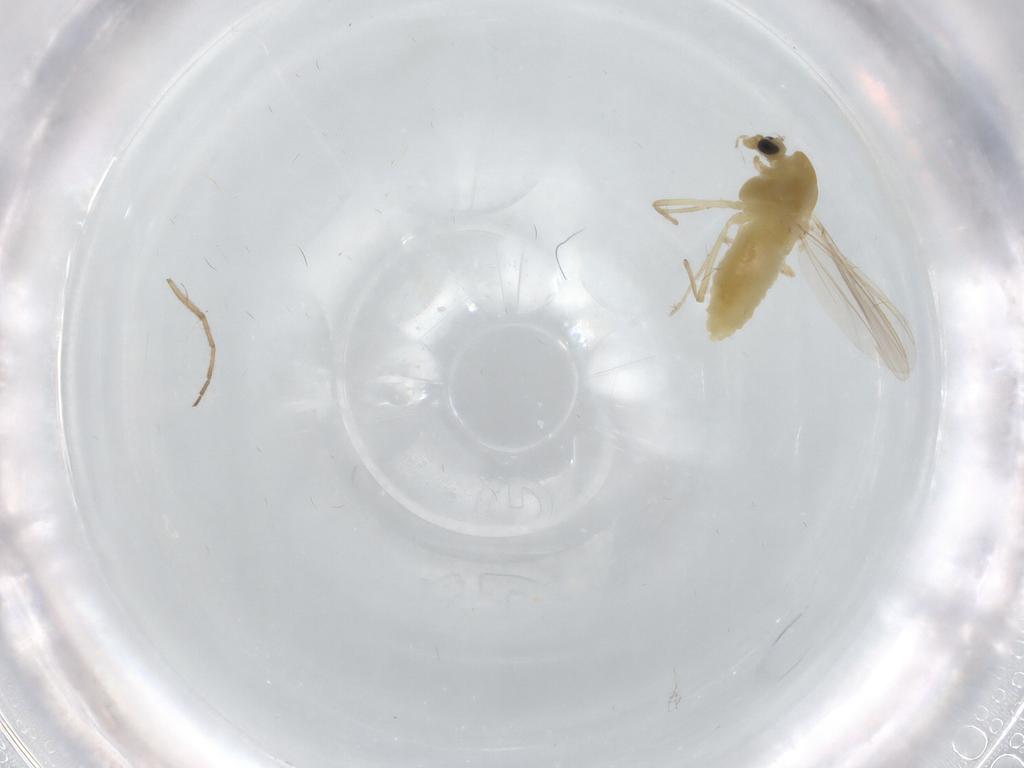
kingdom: Animalia
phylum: Arthropoda
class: Insecta
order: Diptera
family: Chironomidae
